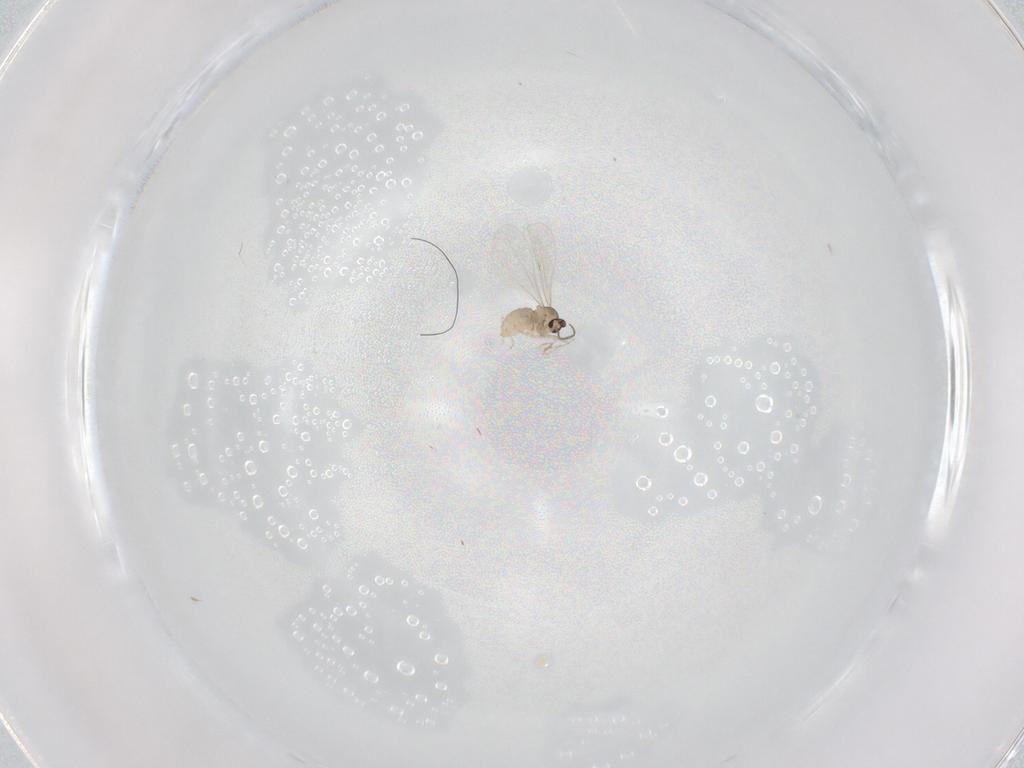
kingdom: Animalia
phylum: Arthropoda
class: Insecta
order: Diptera
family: Cecidomyiidae
